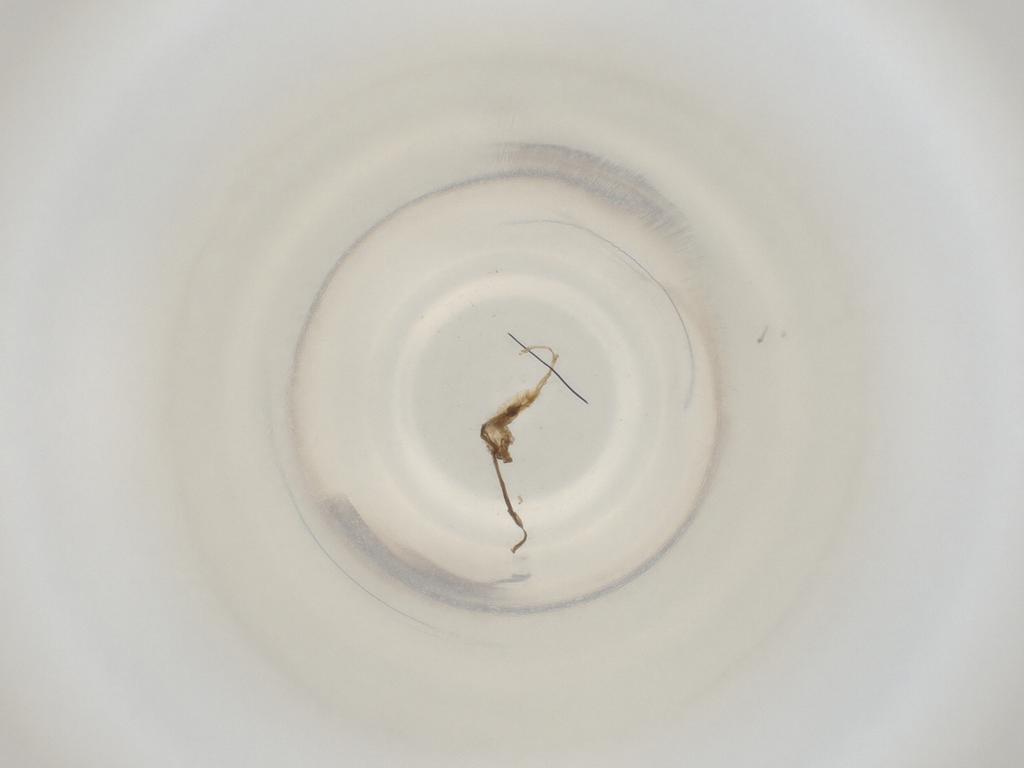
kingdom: Animalia
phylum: Arthropoda
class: Insecta
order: Diptera
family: Cecidomyiidae
